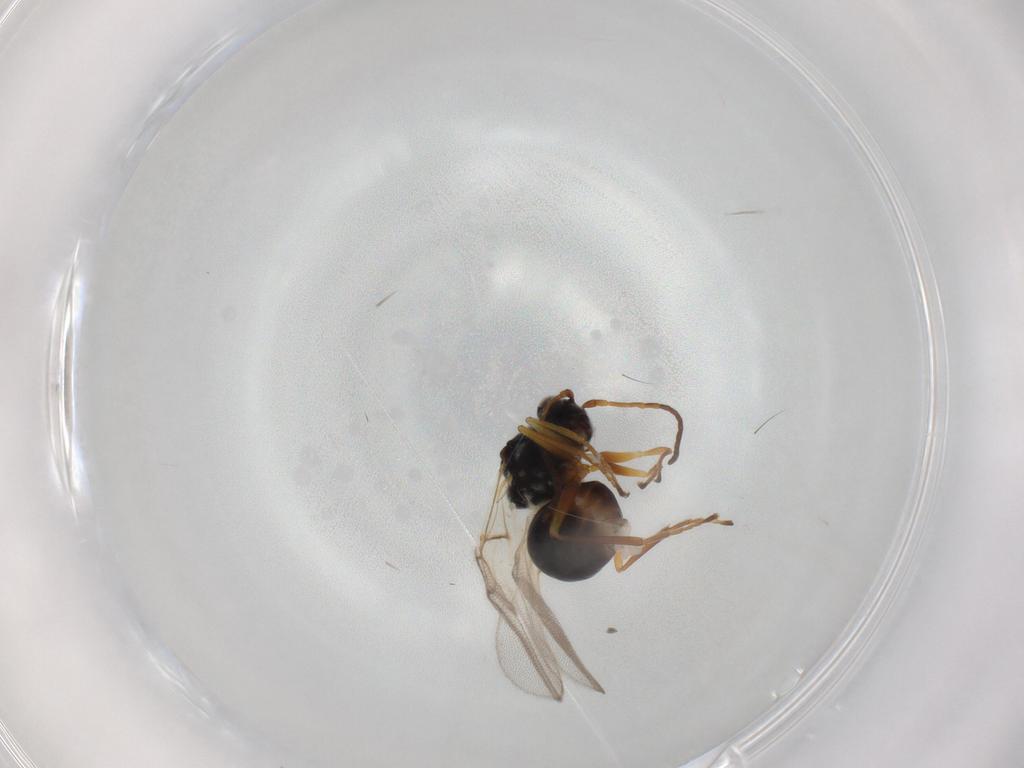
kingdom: Animalia
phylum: Arthropoda
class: Insecta
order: Hymenoptera
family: Figitidae
